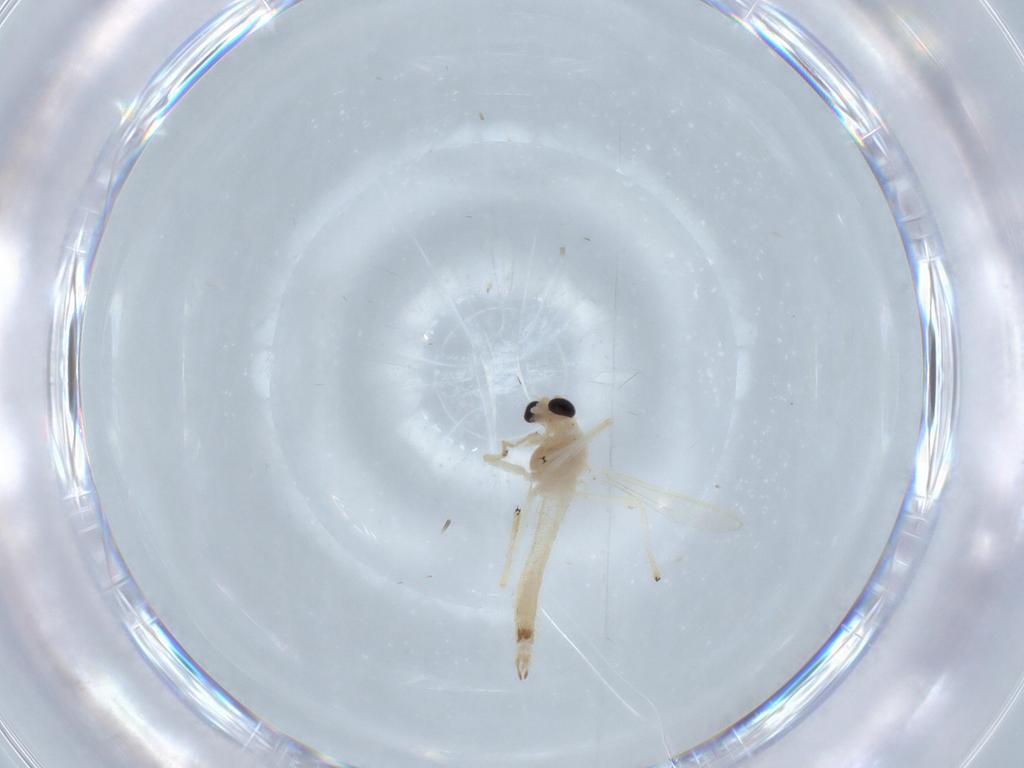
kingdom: Animalia
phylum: Arthropoda
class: Insecta
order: Diptera
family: Chironomidae
